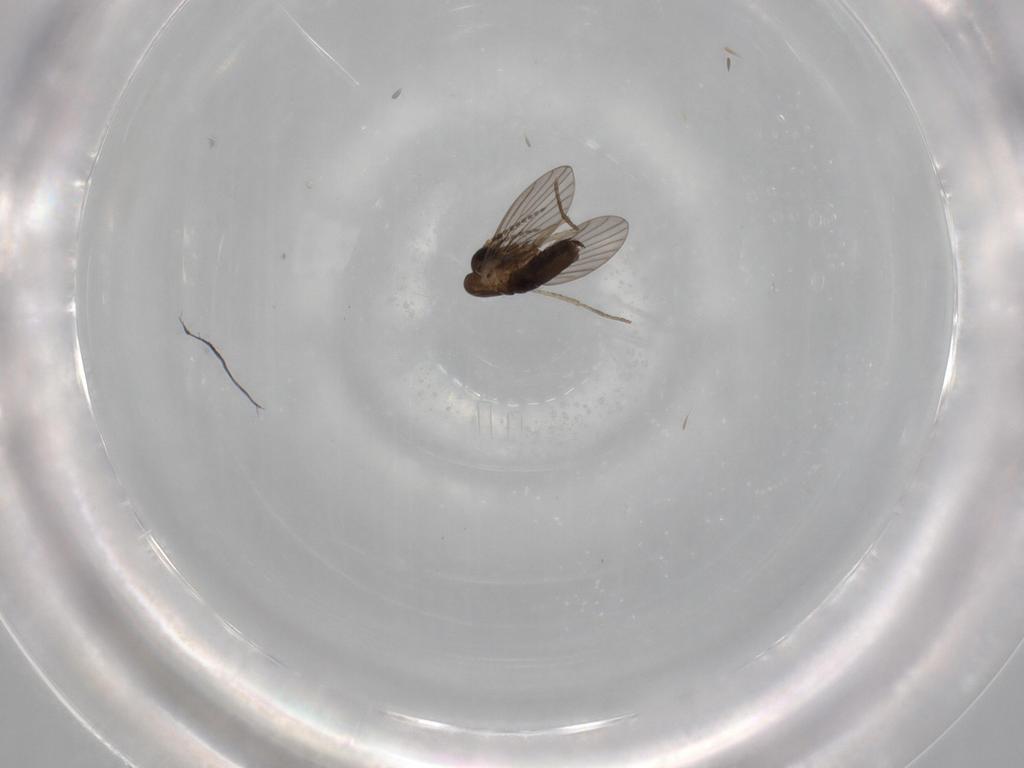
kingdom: Animalia
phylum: Arthropoda
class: Insecta
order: Diptera
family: Ceratopogonidae
